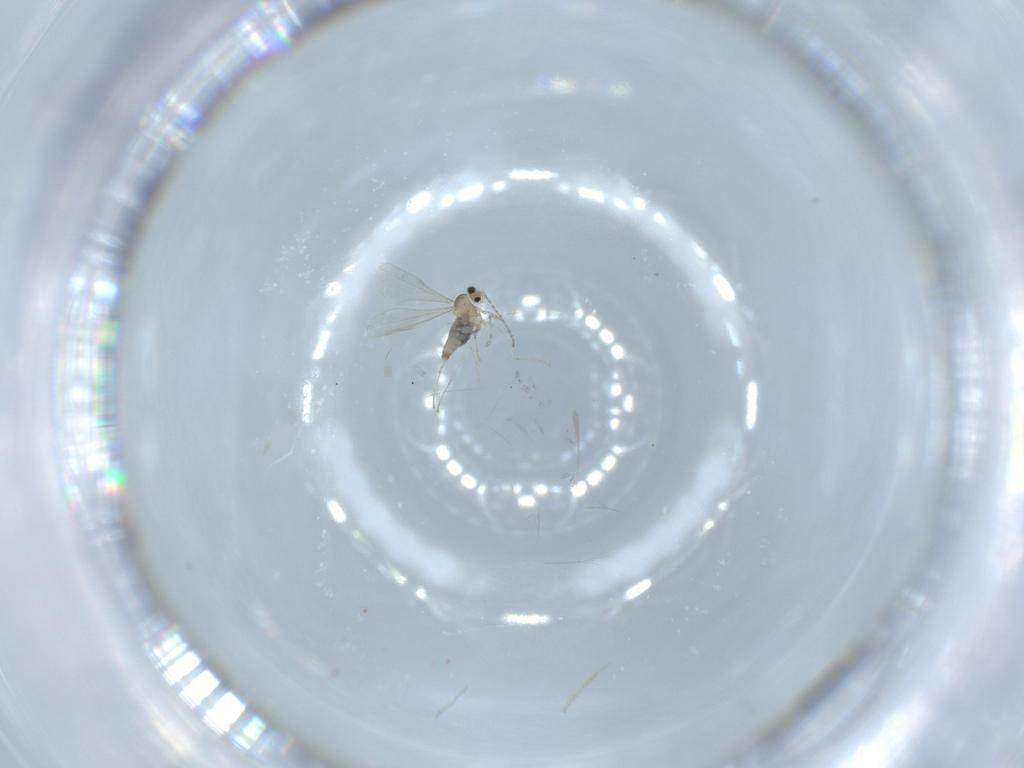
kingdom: Animalia
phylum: Arthropoda
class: Insecta
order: Diptera
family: Cecidomyiidae
